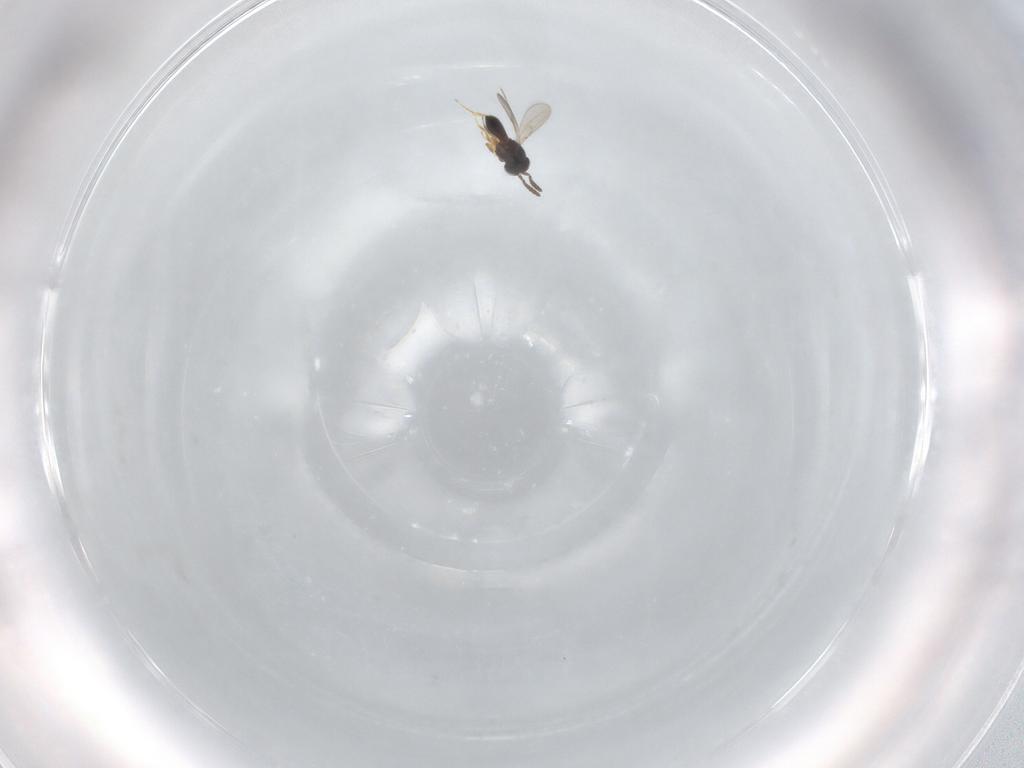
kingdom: Animalia
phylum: Arthropoda
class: Insecta
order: Hymenoptera
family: Scelionidae
